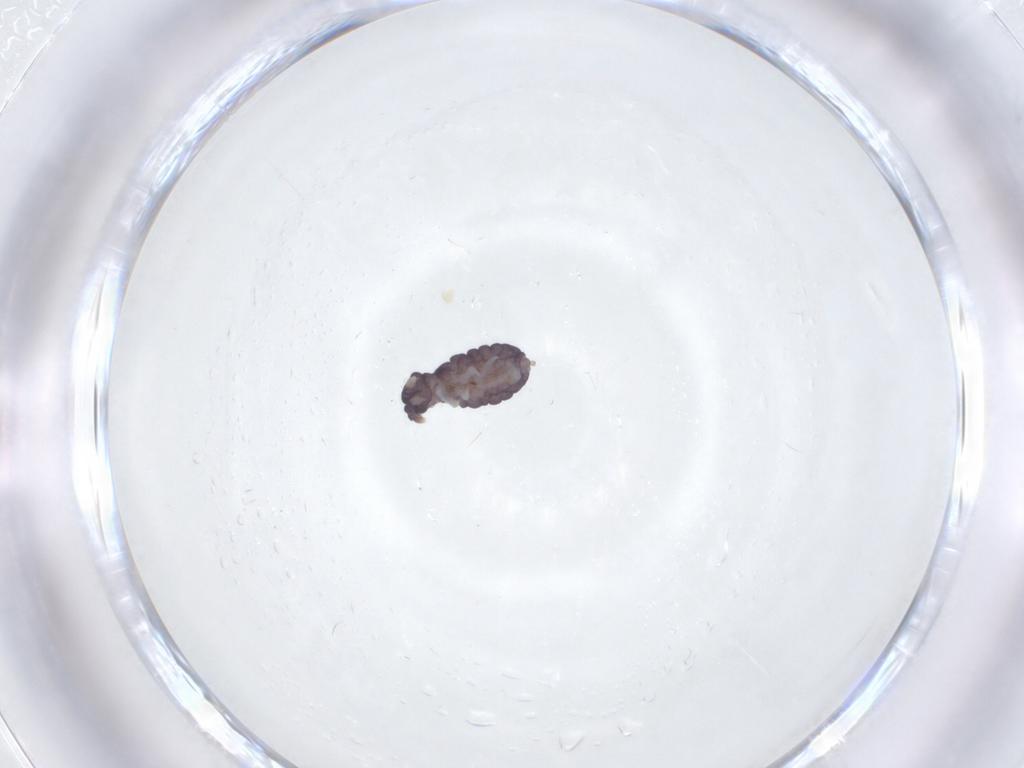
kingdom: Animalia
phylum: Arthropoda
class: Collembola
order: Poduromorpha
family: Neanuridae
